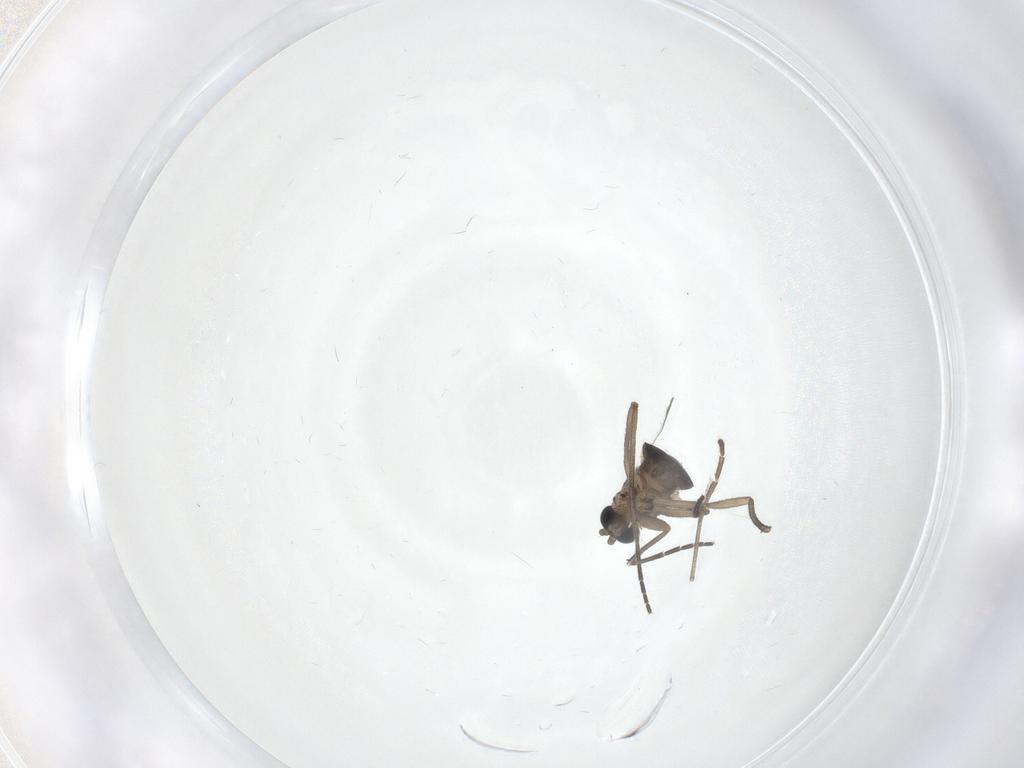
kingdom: Animalia
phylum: Arthropoda
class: Insecta
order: Diptera
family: Sciaridae
